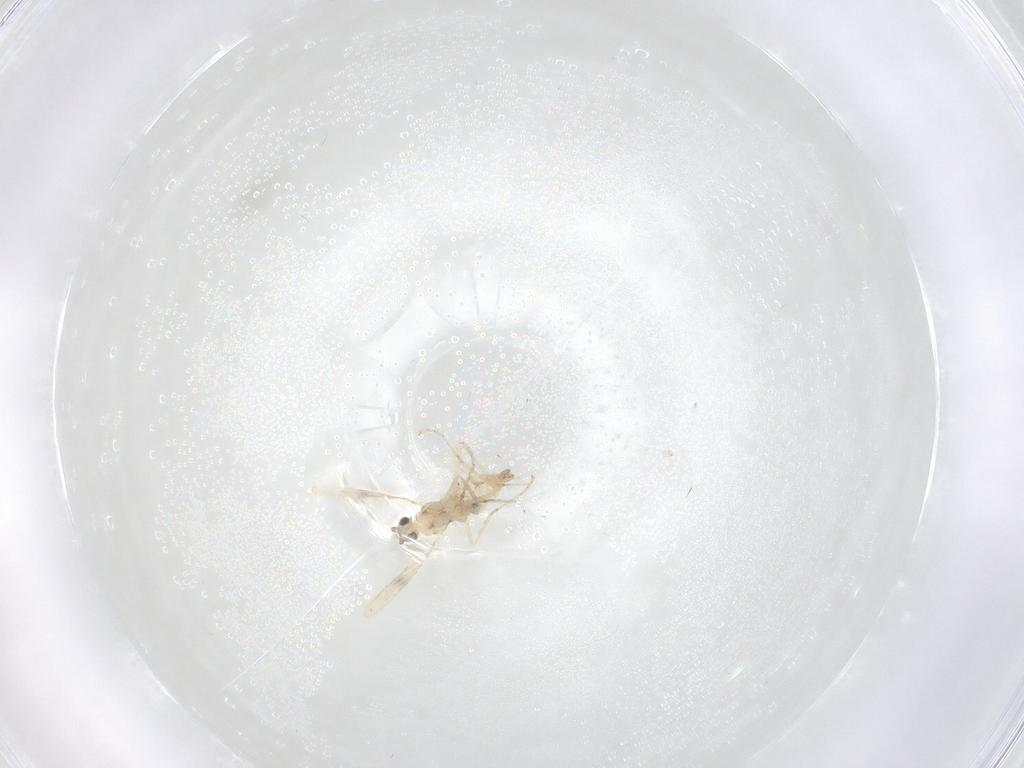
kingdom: Animalia
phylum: Arthropoda
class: Insecta
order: Diptera
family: Cecidomyiidae
